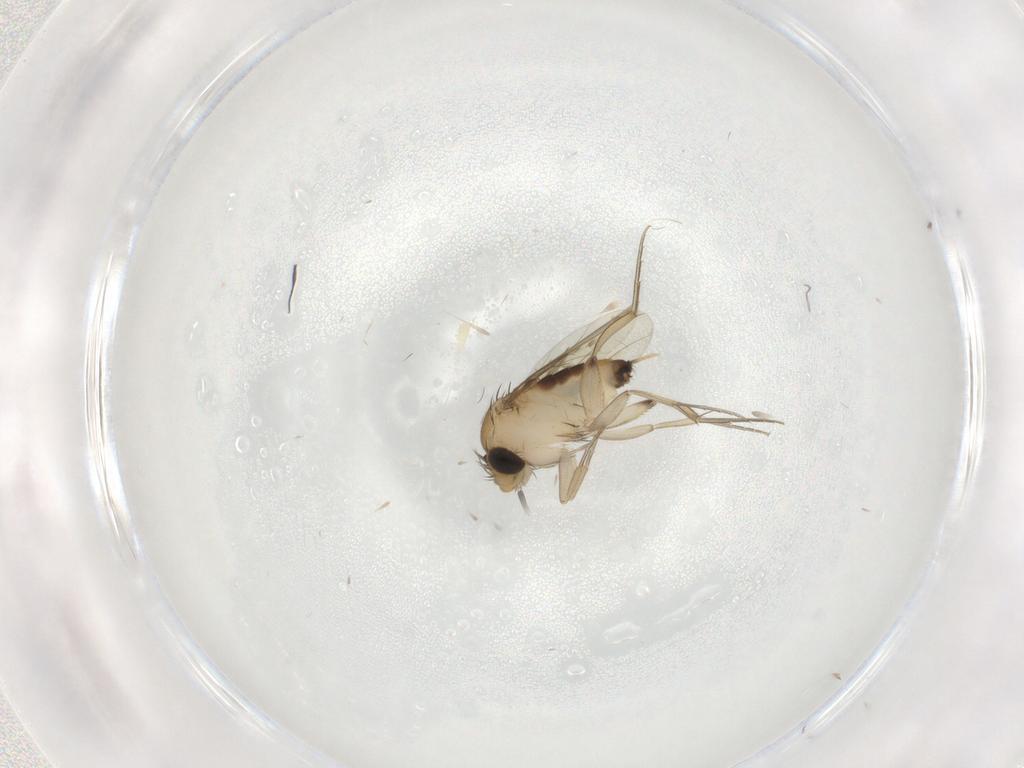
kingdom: Animalia
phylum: Arthropoda
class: Insecta
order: Diptera
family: Phoridae
